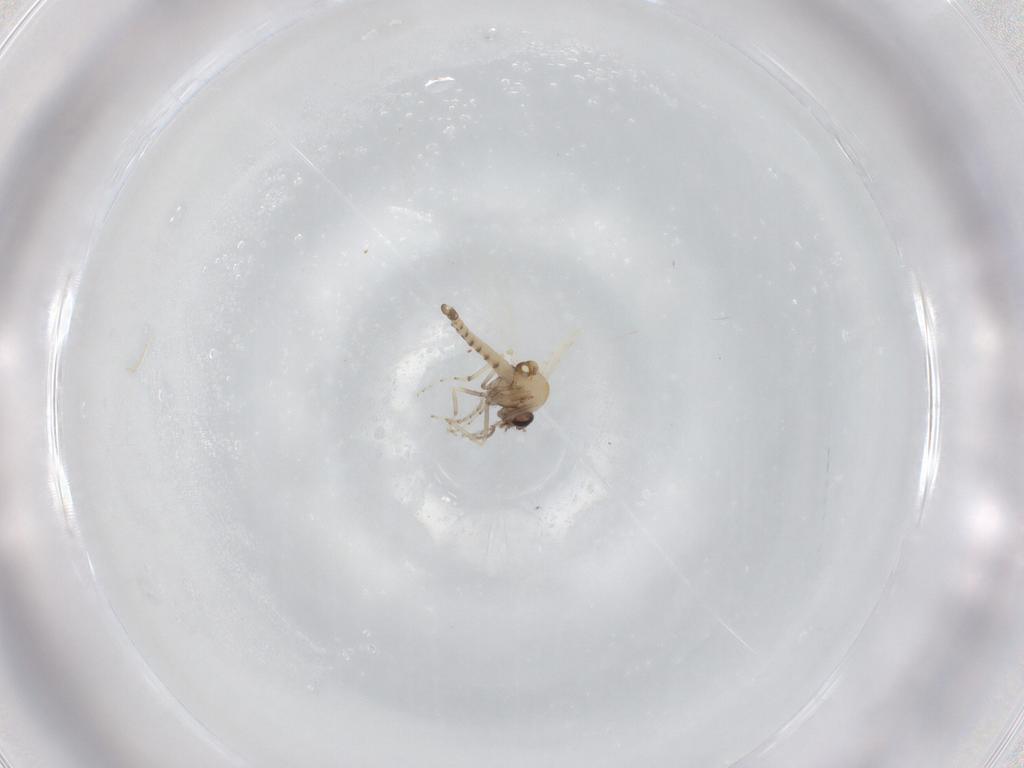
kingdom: Animalia
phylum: Arthropoda
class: Insecta
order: Diptera
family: Ceratopogonidae
